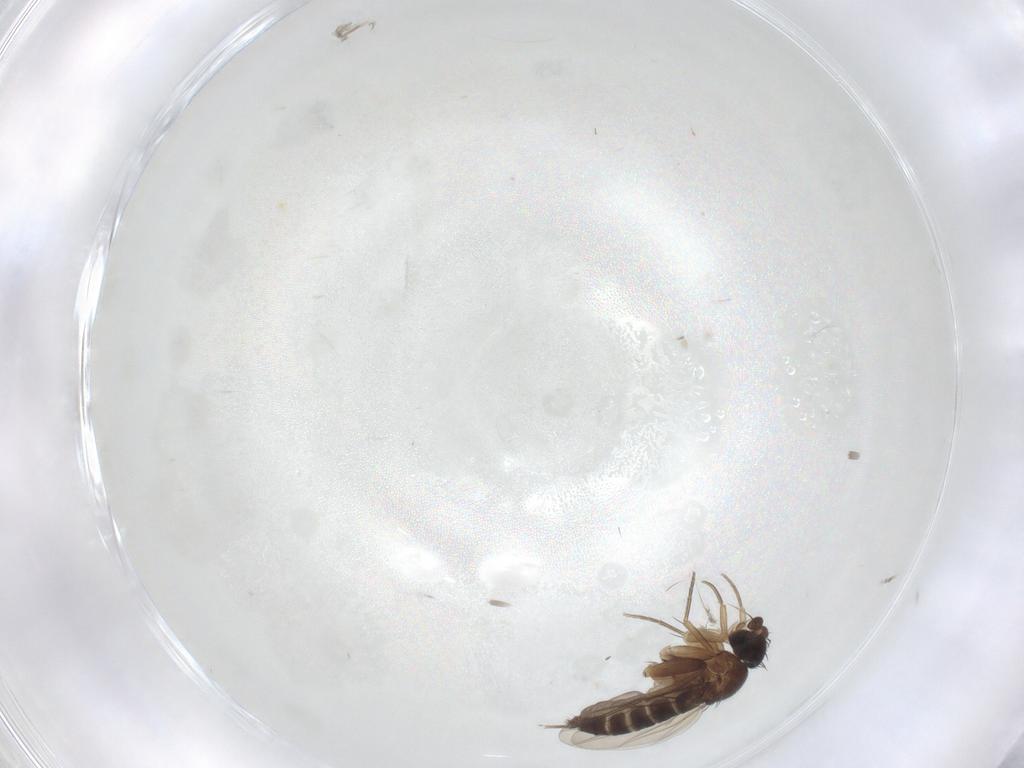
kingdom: Animalia
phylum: Arthropoda
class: Insecta
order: Diptera
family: Phoridae
